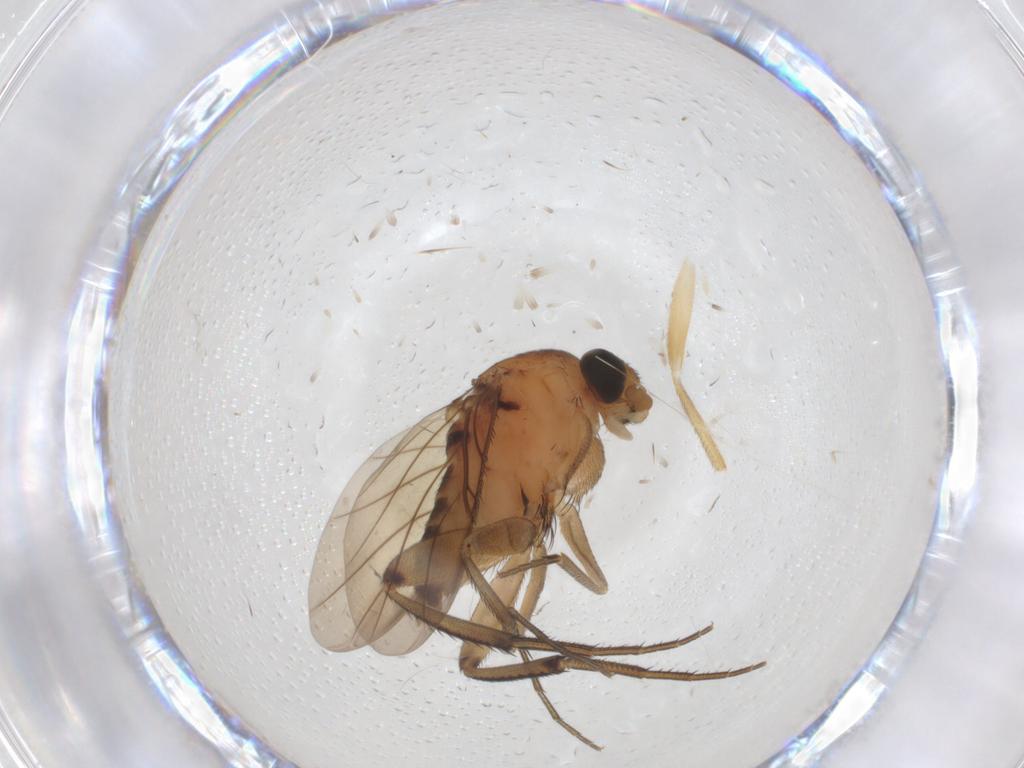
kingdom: Animalia
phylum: Arthropoda
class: Insecta
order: Diptera
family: Phoridae
